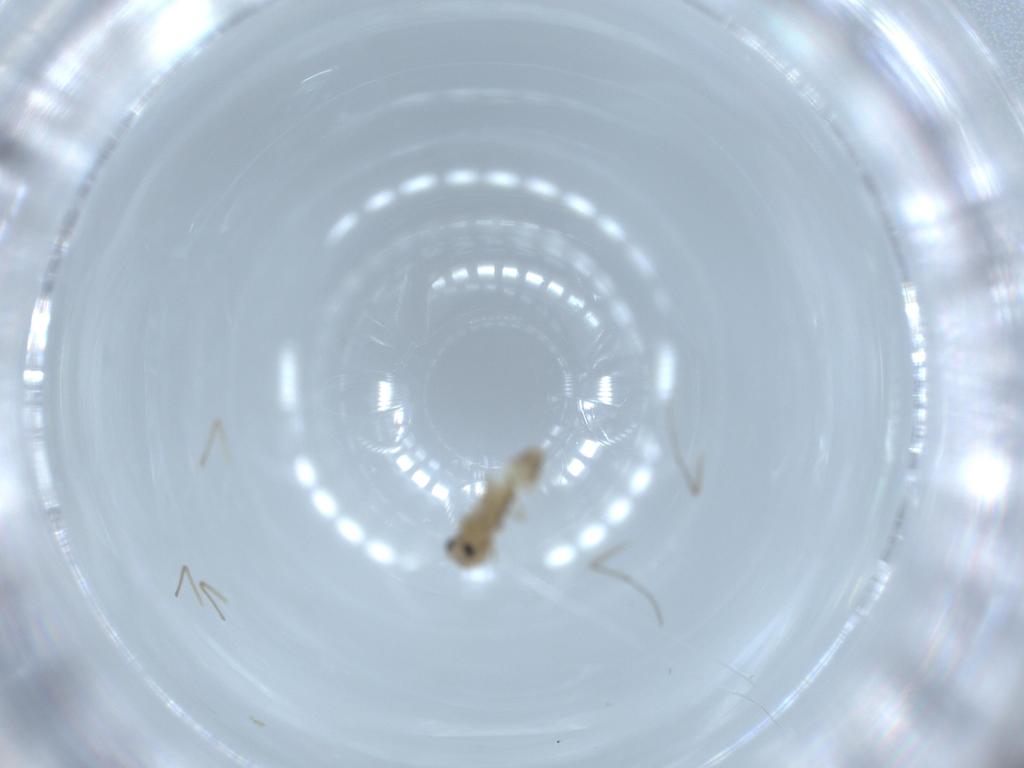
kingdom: Animalia
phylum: Arthropoda
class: Insecta
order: Diptera
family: Chironomidae
